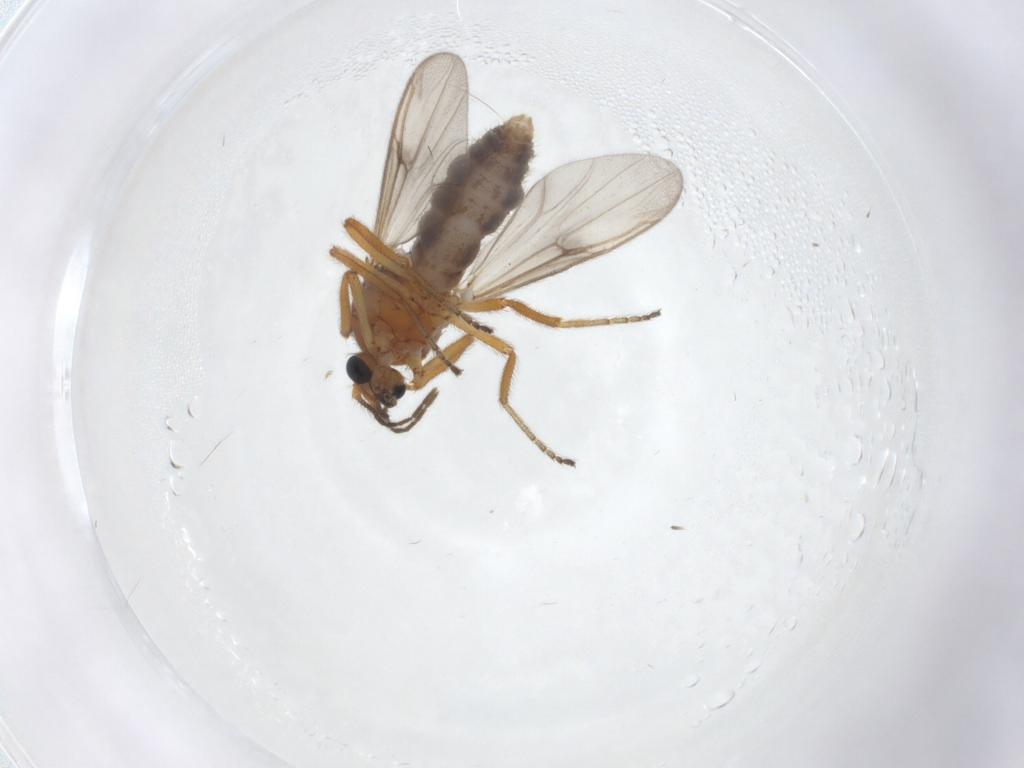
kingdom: Animalia
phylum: Arthropoda
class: Insecta
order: Diptera
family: Ceratopogonidae
